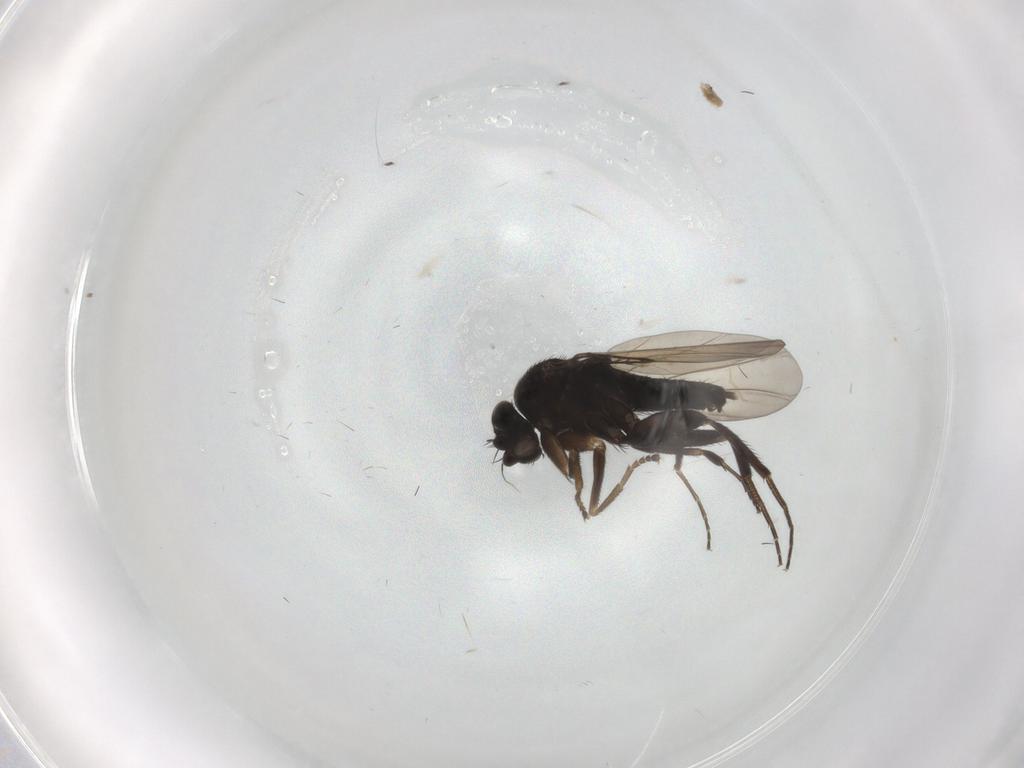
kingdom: Animalia
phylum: Arthropoda
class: Insecta
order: Diptera
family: Phoridae
